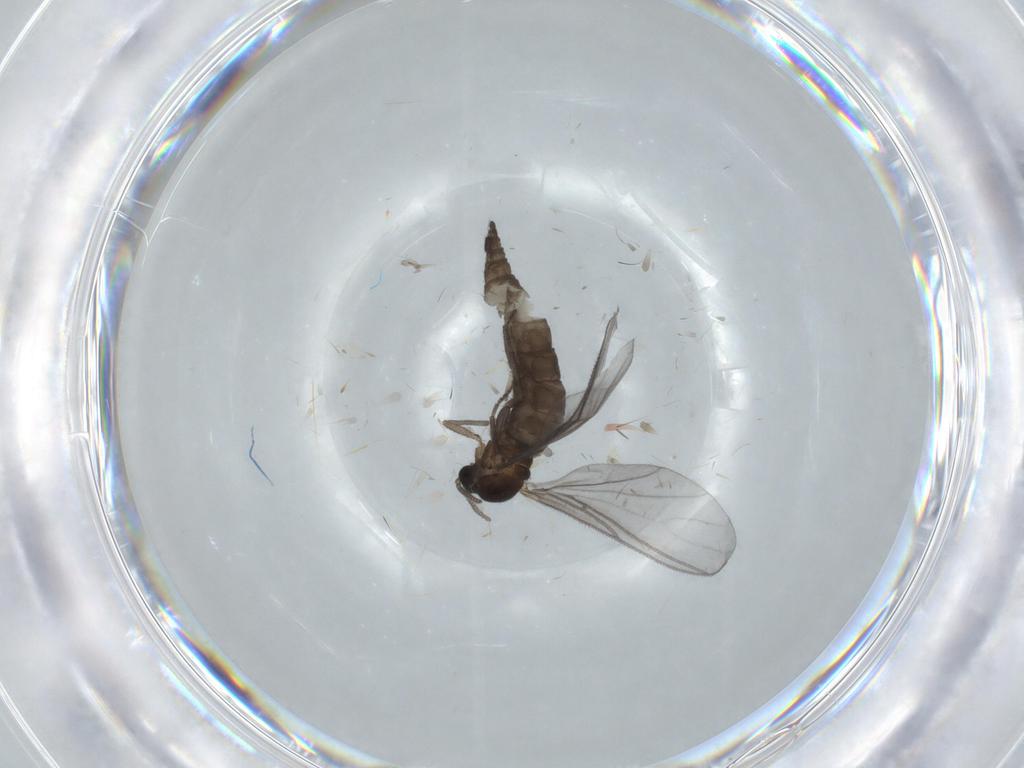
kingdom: Animalia
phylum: Arthropoda
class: Insecta
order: Diptera
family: Sciaridae
